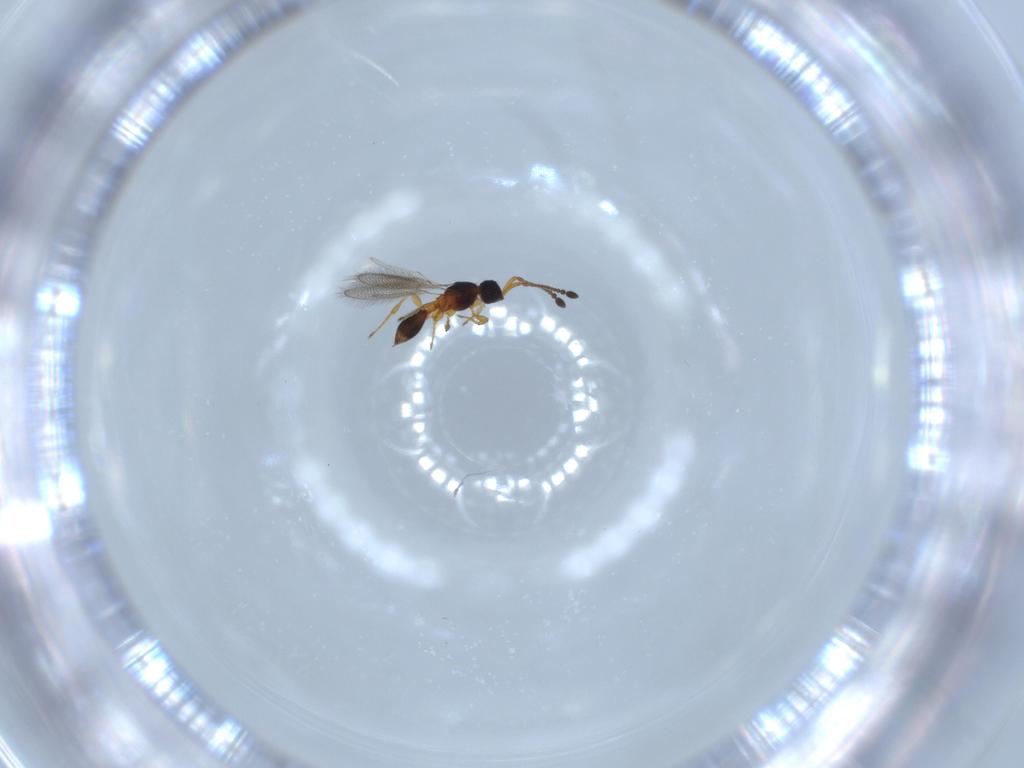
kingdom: Animalia
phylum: Arthropoda
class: Insecta
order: Hymenoptera
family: Diapriidae
